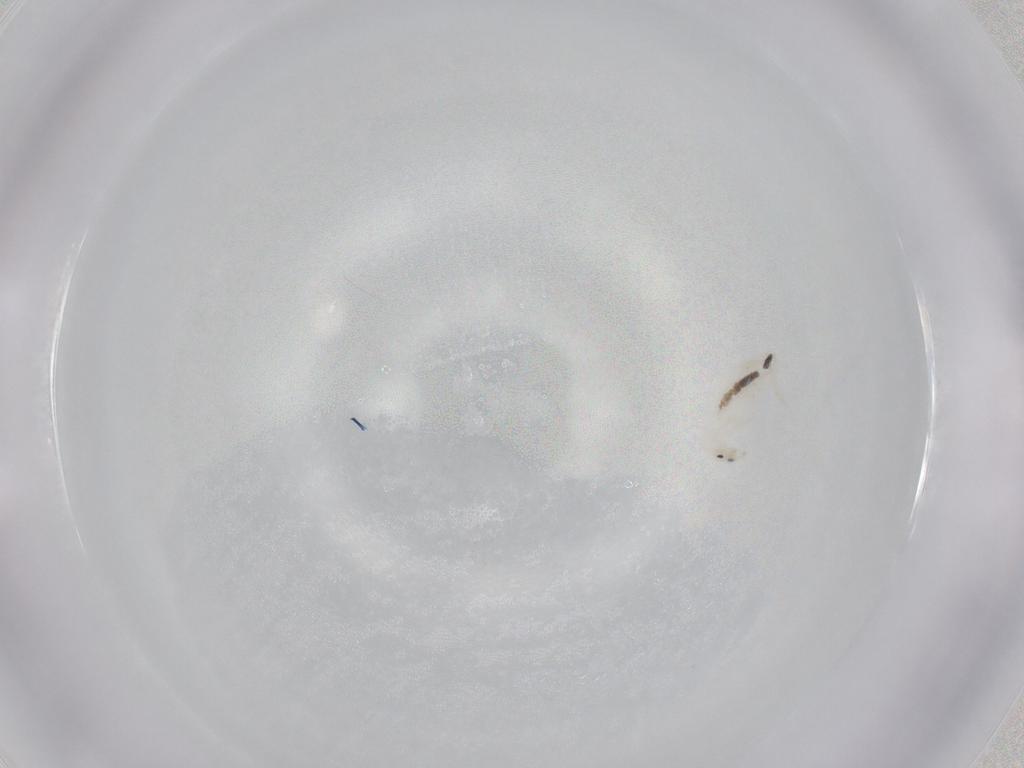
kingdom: Animalia
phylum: Arthropoda
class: Collembola
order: Entomobryomorpha
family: Entomobryidae
